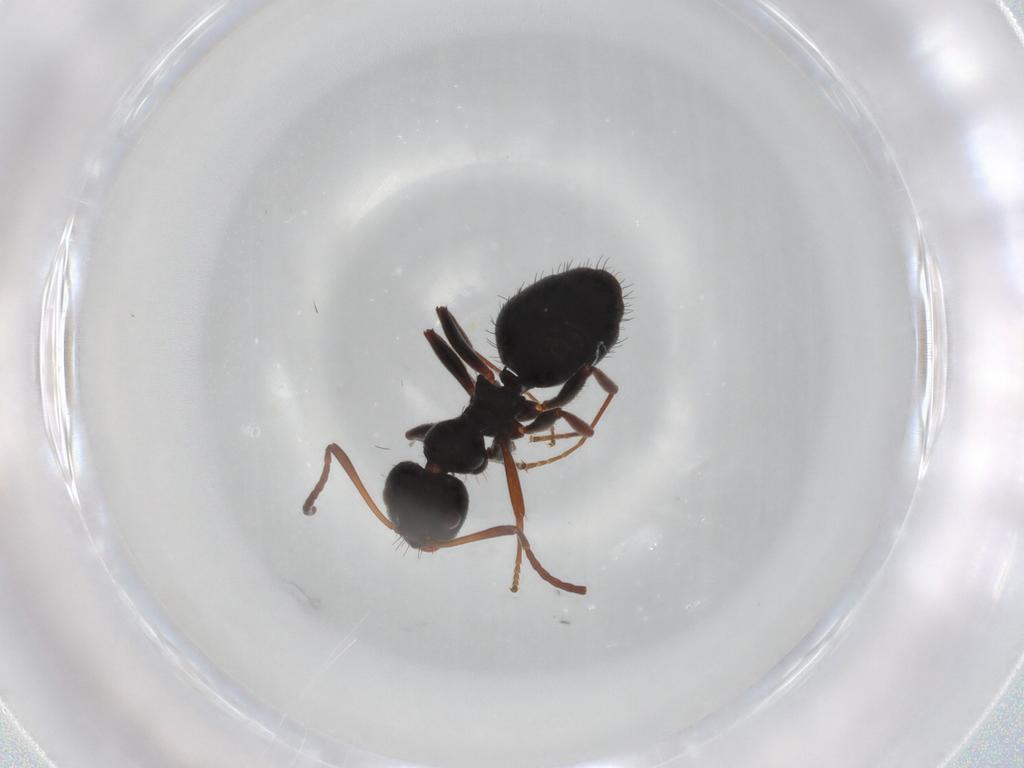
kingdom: Animalia
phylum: Arthropoda
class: Insecta
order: Hymenoptera
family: Formicidae
